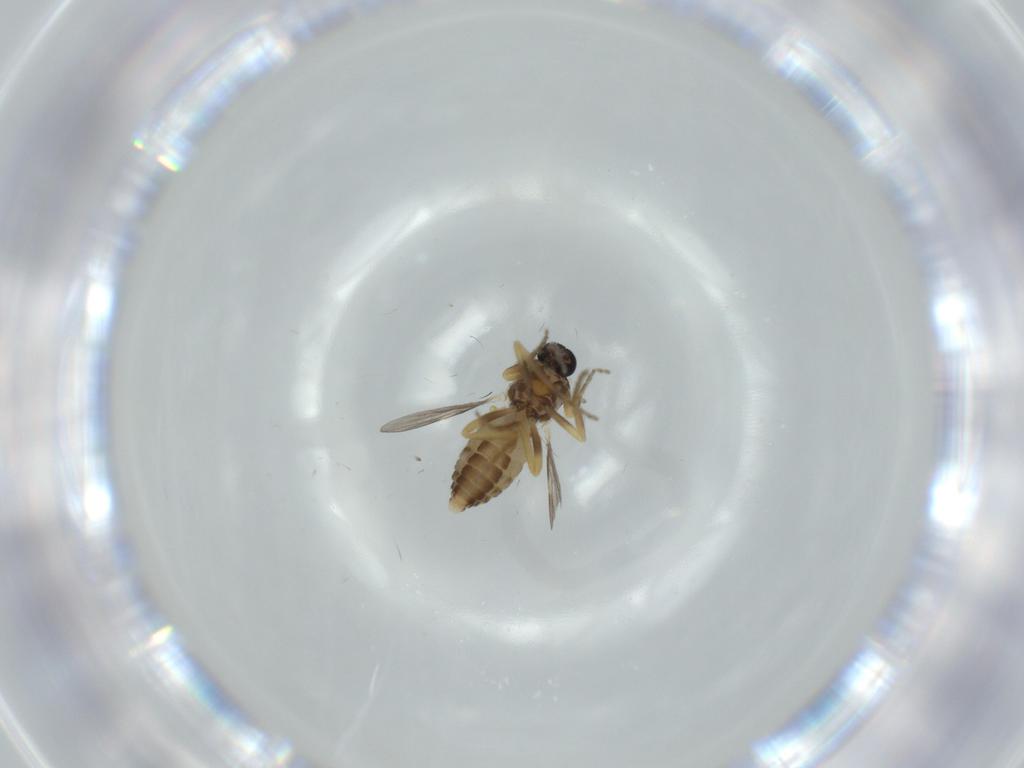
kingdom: Animalia
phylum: Arthropoda
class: Insecta
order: Diptera
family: Ceratopogonidae
